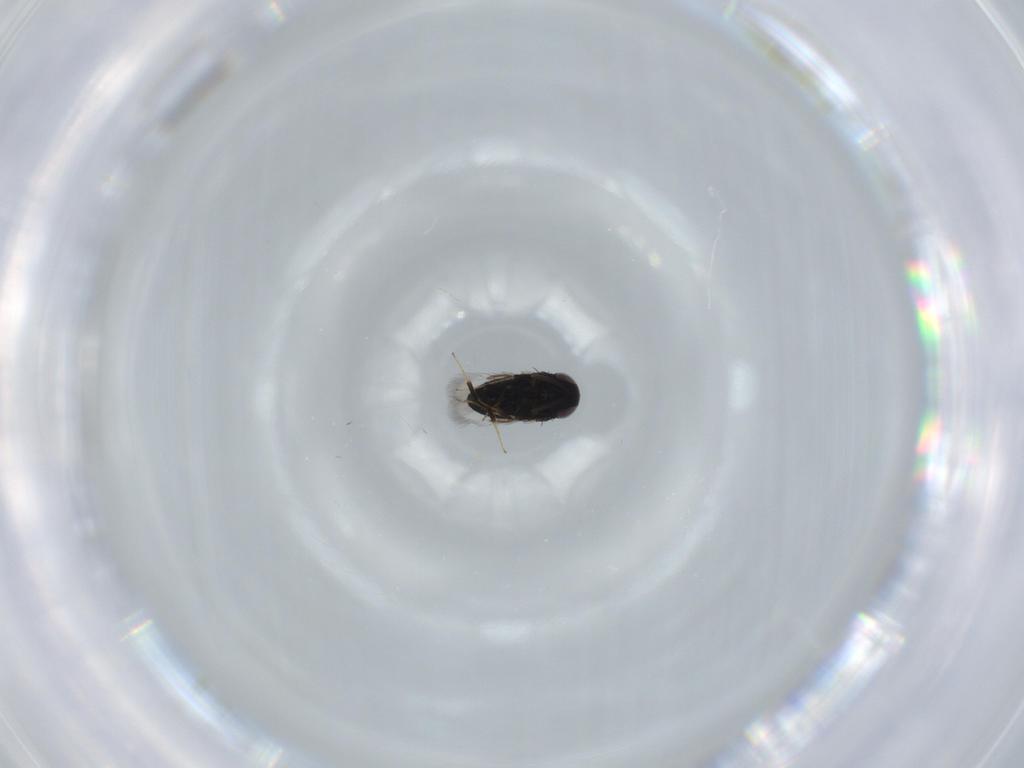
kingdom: Animalia
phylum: Arthropoda
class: Insecta
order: Hymenoptera
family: Signiphoridae
